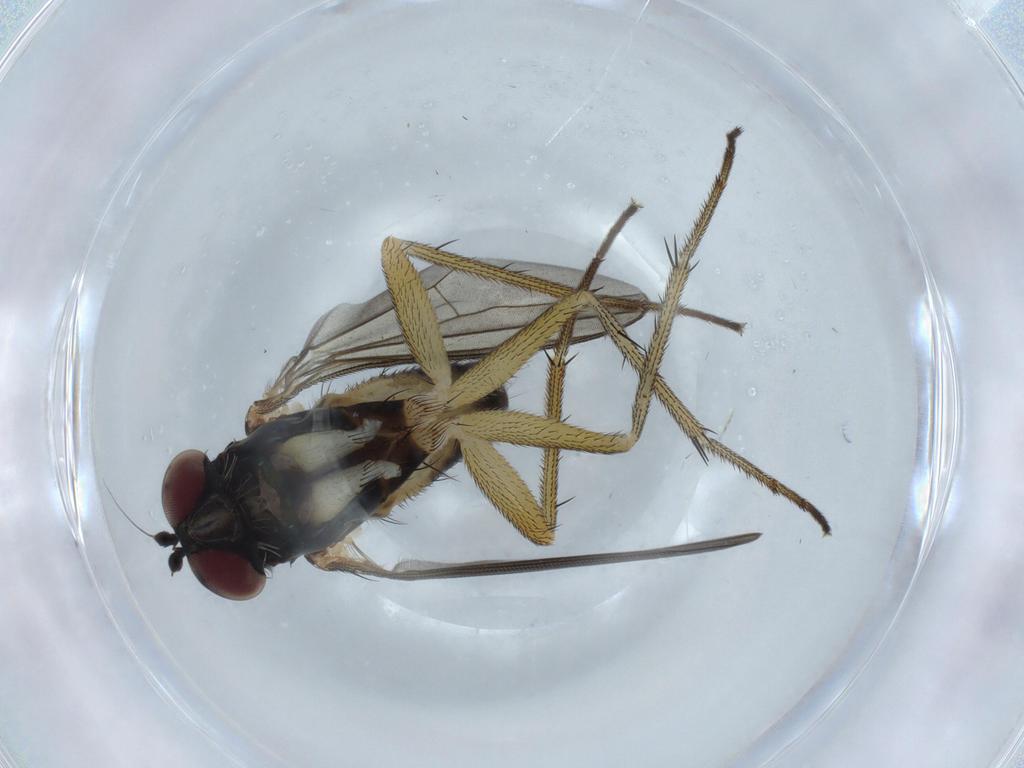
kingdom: Animalia
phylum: Arthropoda
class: Insecta
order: Diptera
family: Dolichopodidae
